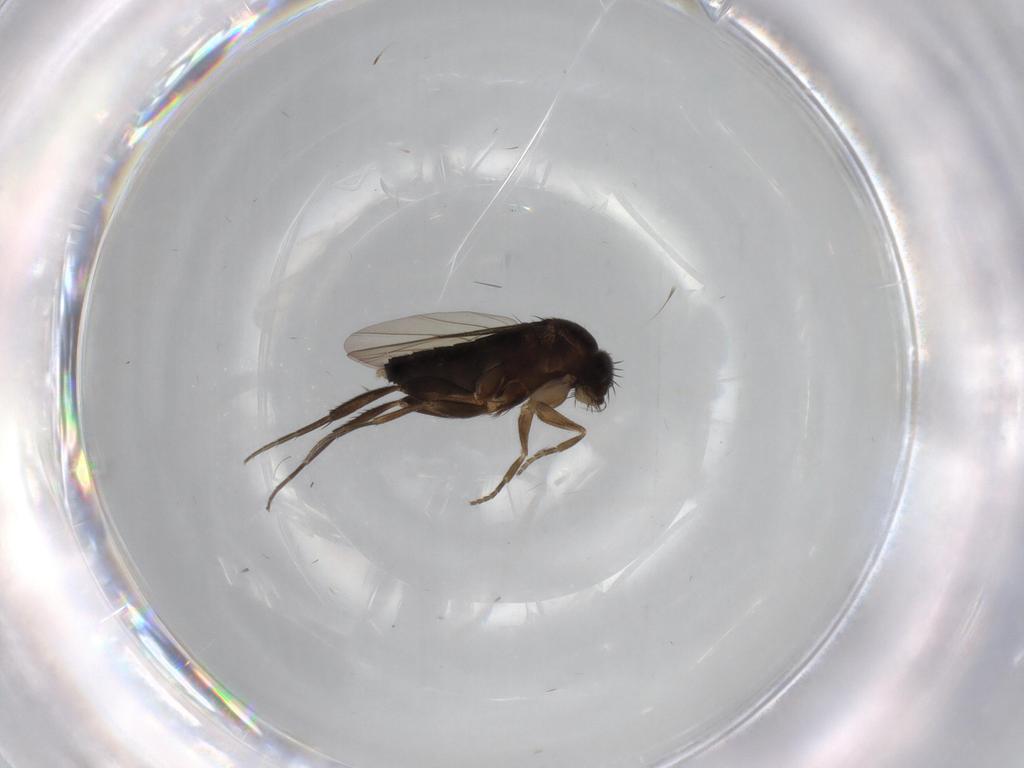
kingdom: Animalia
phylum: Arthropoda
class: Insecta
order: Diptera
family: Phoridae
